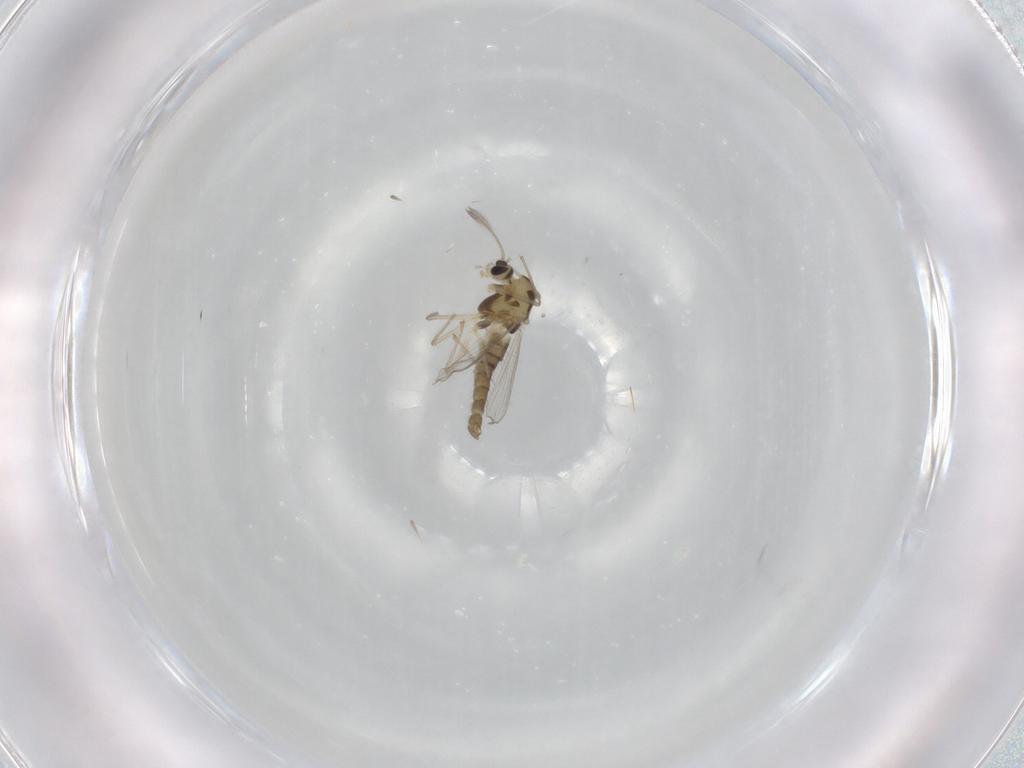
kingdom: Animalia
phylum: Arthropoda
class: Insecta
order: Diptera
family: Chironomidae
